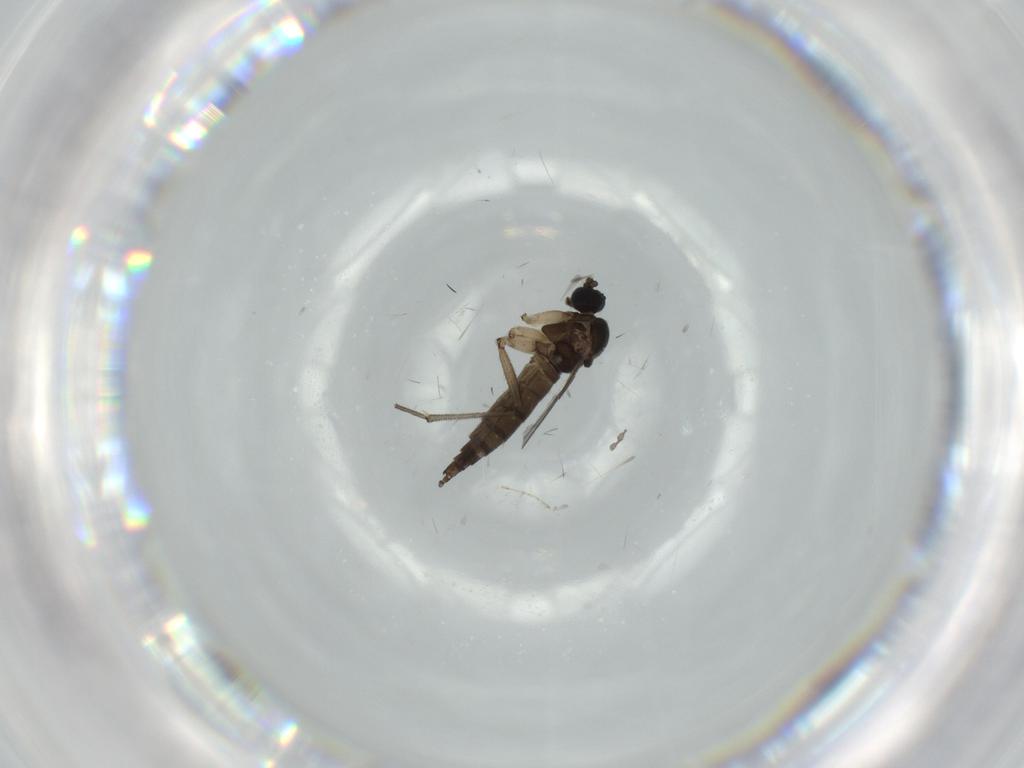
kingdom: Animalia
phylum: Arthropoda
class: Insecta
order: Diptera
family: Sciaridae
